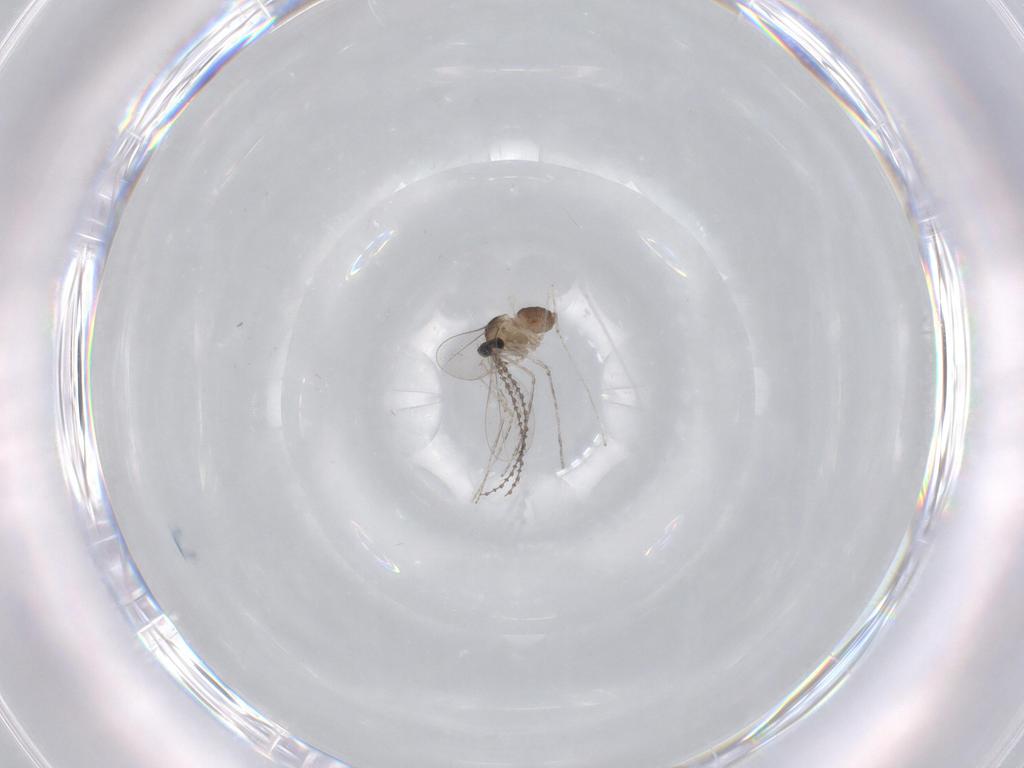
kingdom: Animalia
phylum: Arthropoda
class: Insecta
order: Diptera
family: Cecidomyiidae
